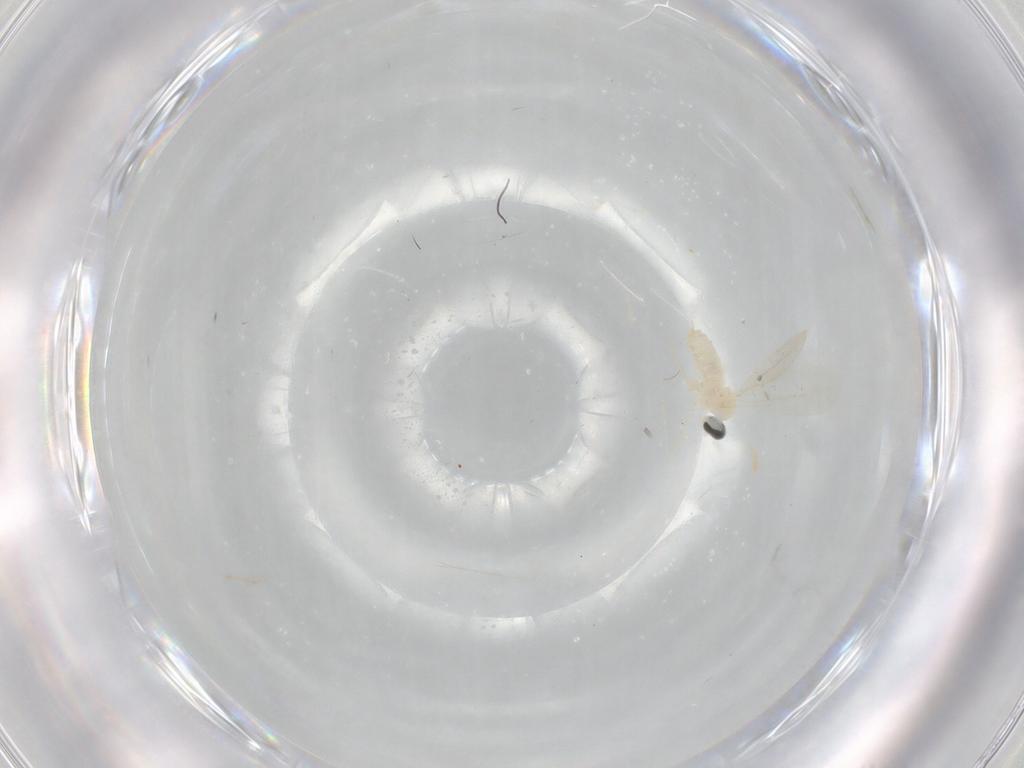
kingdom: Animalia
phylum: Arthropoda
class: Insecta
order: Diptera
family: Cecidomyiidae
